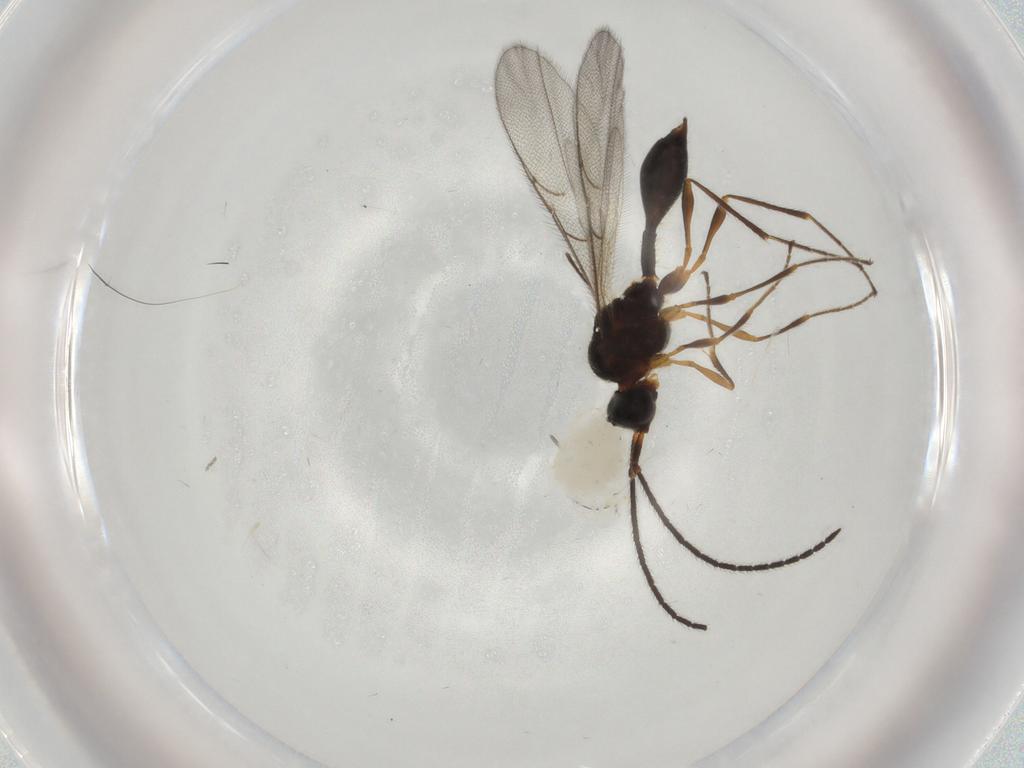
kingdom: Animalia
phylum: Arthropoda
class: Insecta
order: Hymenoptera
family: Diapriidae
